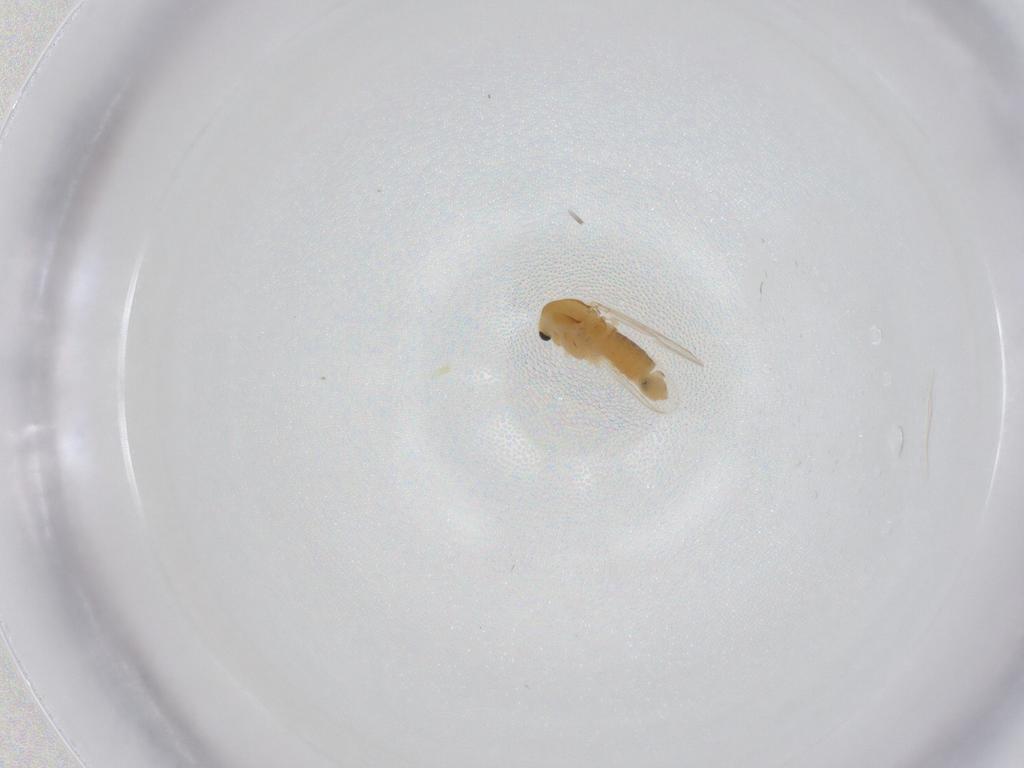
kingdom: Animalia
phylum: Arthropoda
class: Insecta
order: Diptera
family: Chironomidae
